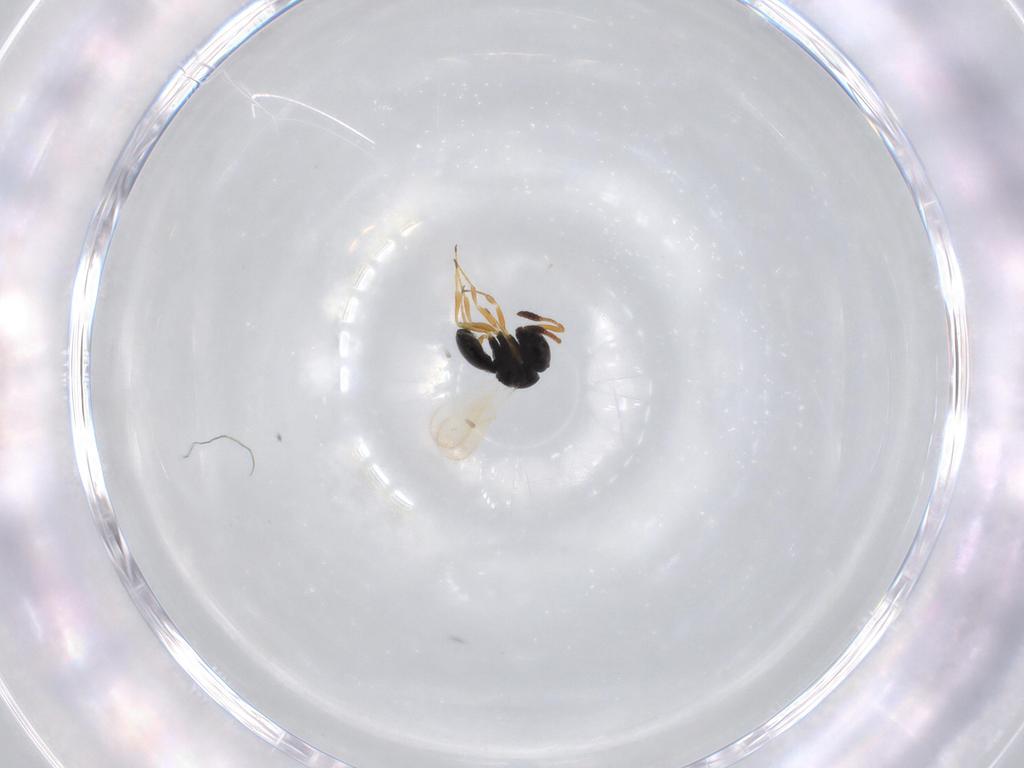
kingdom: Animalia
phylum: Arthropoda
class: Insecta
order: Hymenoptera
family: Scelionidae
